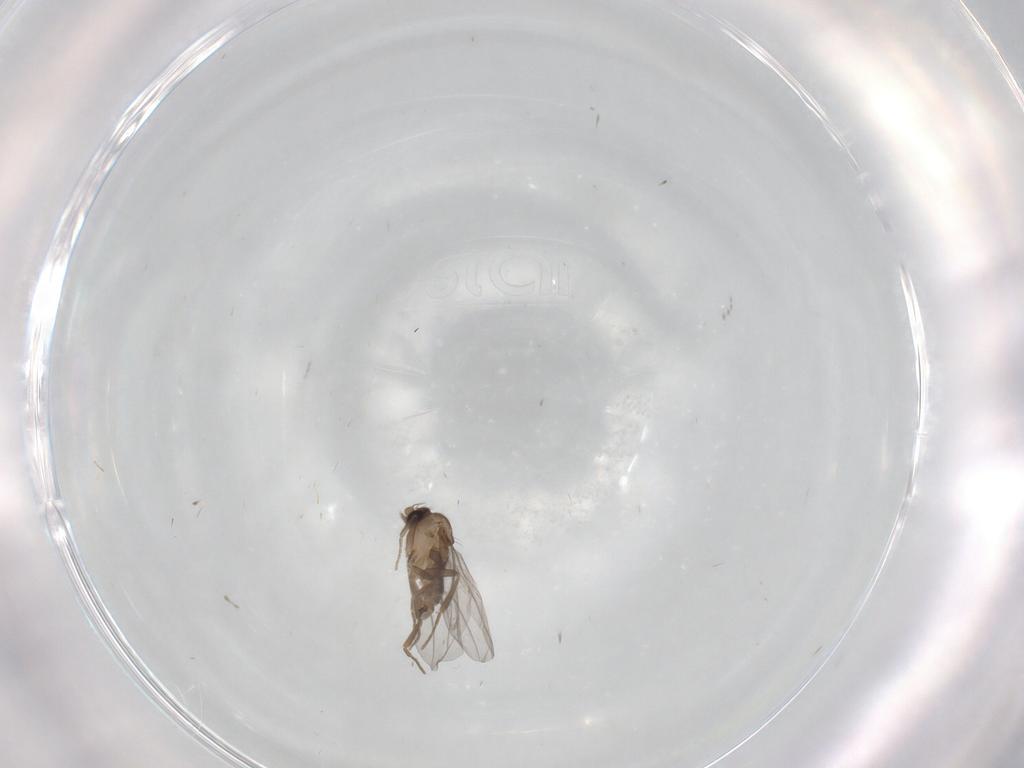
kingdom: Animalia
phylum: Arthropoda
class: Insecta
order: Diptera
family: Cecidomyiidae
